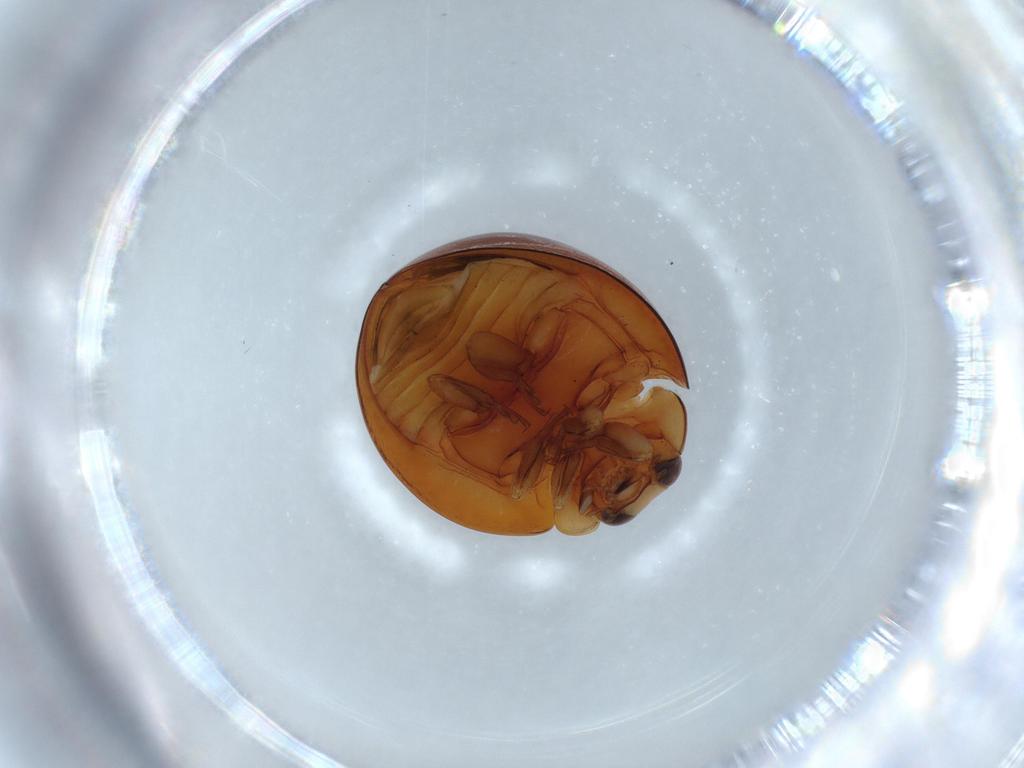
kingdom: Animalia
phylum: Arthropoda
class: Insecta
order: Coleoptera
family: Coccinellidae
